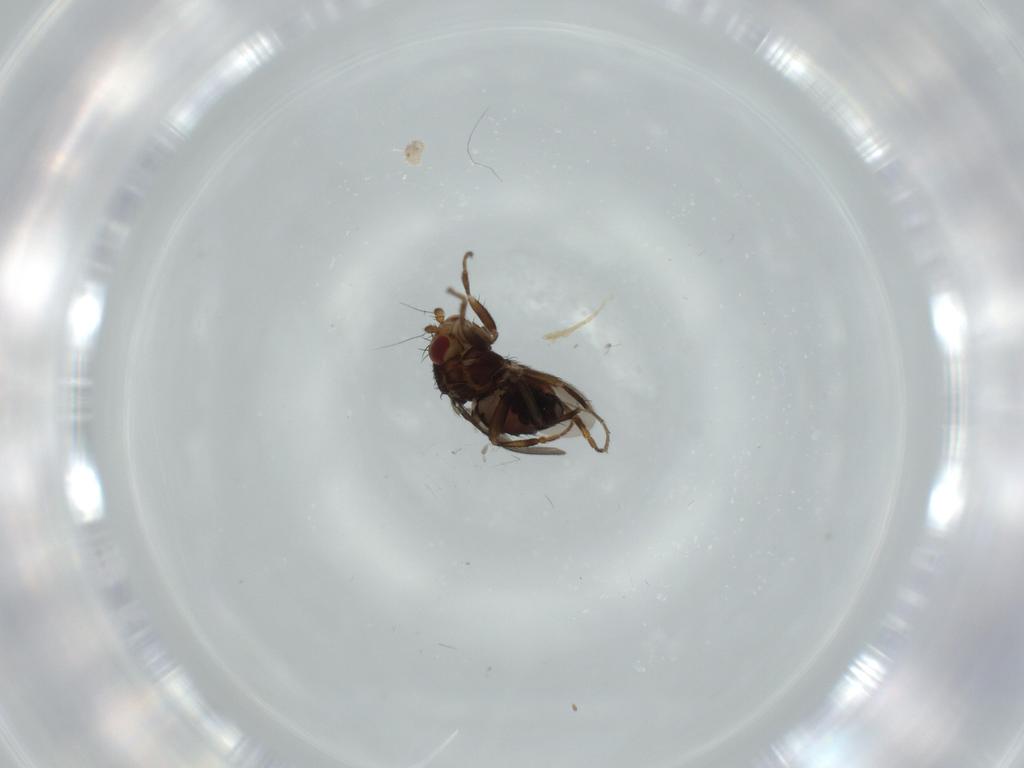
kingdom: Animalia
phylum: Arthropoda
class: Insecta
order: Diptera
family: Sphaeroceridae
